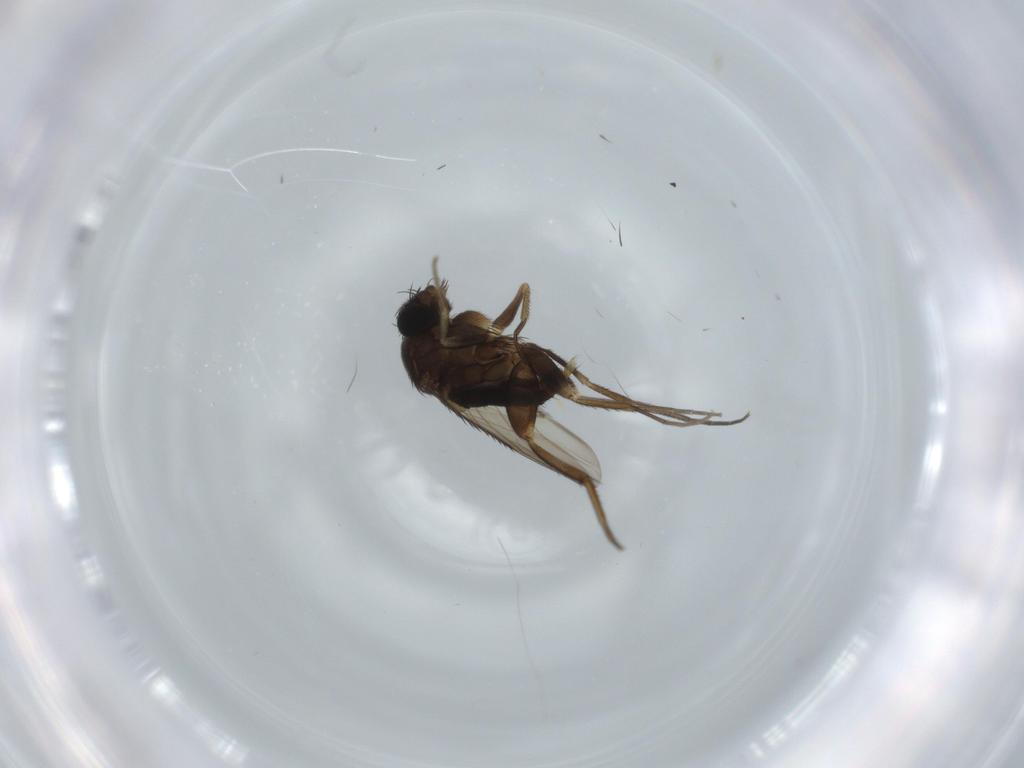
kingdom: Animalia
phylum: Arthropoda
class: Insecta
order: Diptera
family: Phoridae
